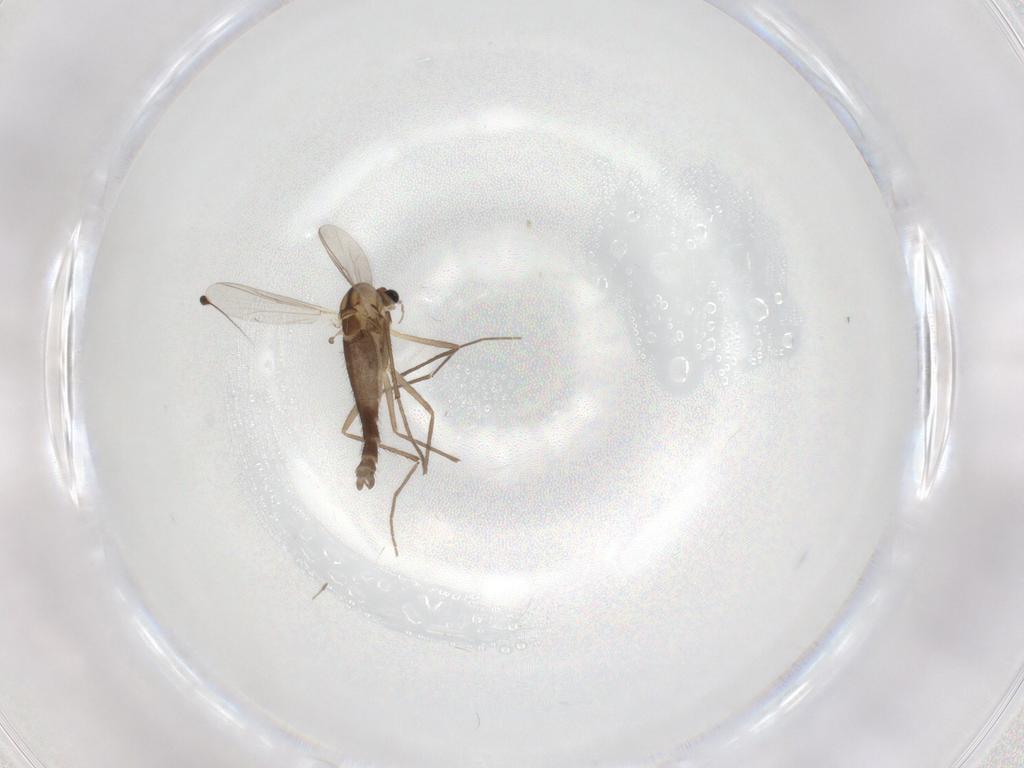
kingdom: Animalia
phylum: Arthropoda
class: Insecta
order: Diptera
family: Chironomidae
